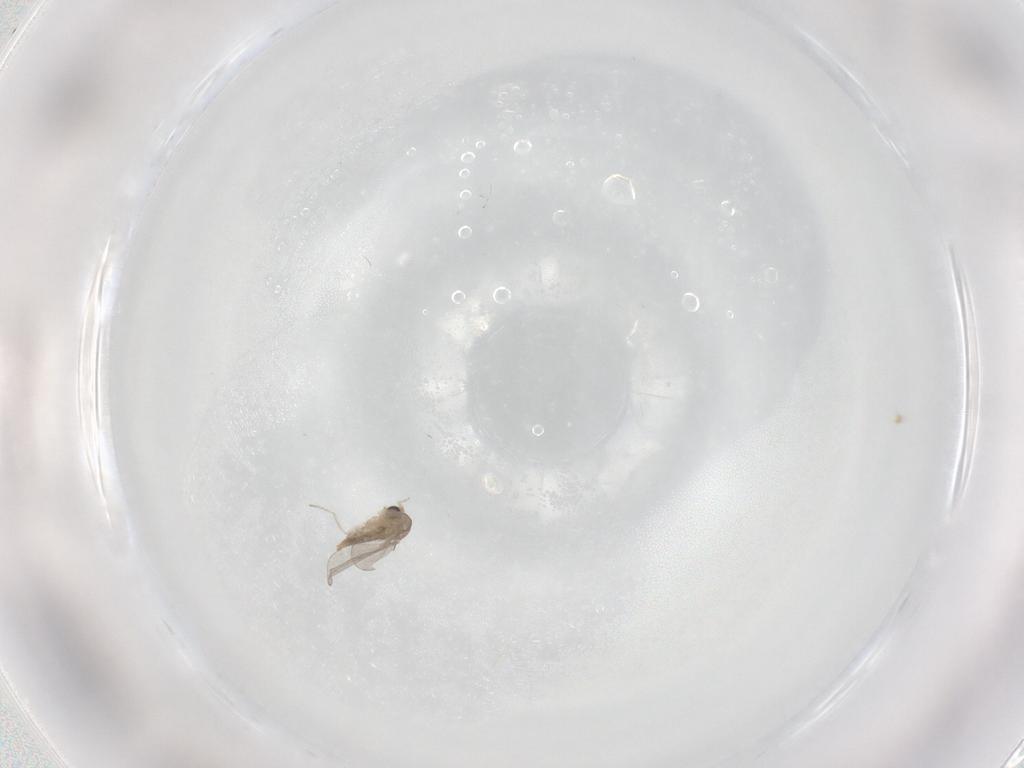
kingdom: Animalia
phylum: Arthropoda
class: Insecta
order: Diptera
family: Cecidomyiidae
